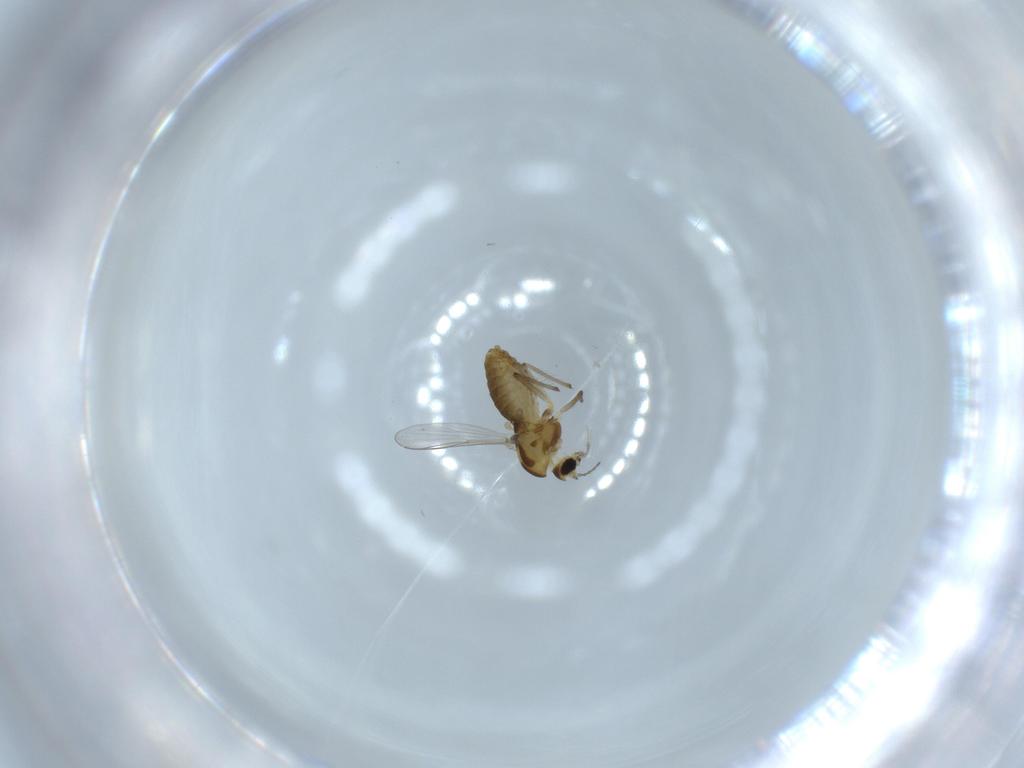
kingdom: Animalia
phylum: Arthropoda
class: Insecta
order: Diptera
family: Chironomidae
